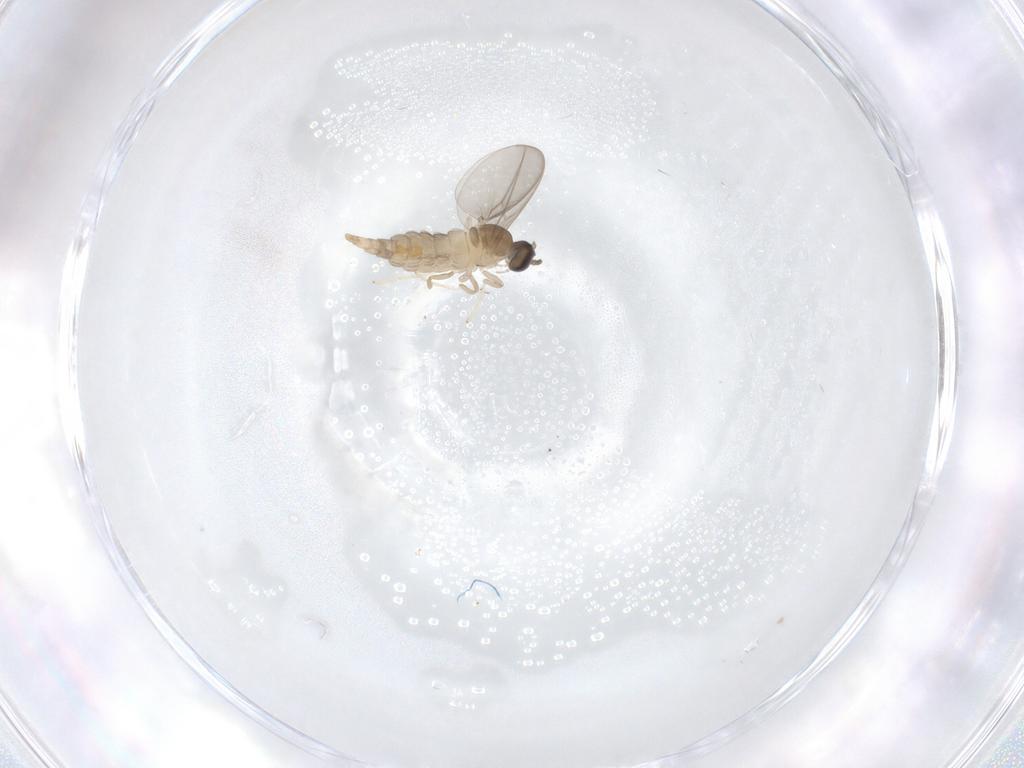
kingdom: Animalia
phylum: Arthropoda
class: Insecta
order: Diptera
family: Cecidomyiidae
